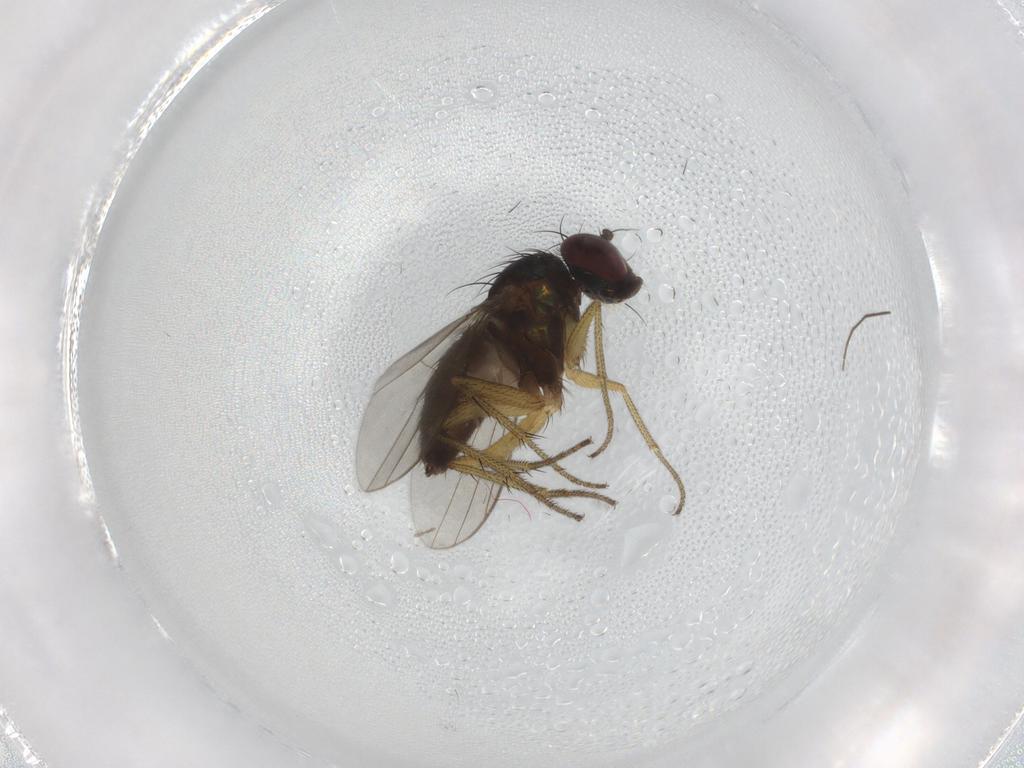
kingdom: Animalia
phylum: Arthropoda
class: Insecta
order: Diptera
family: Dolichopodidae
